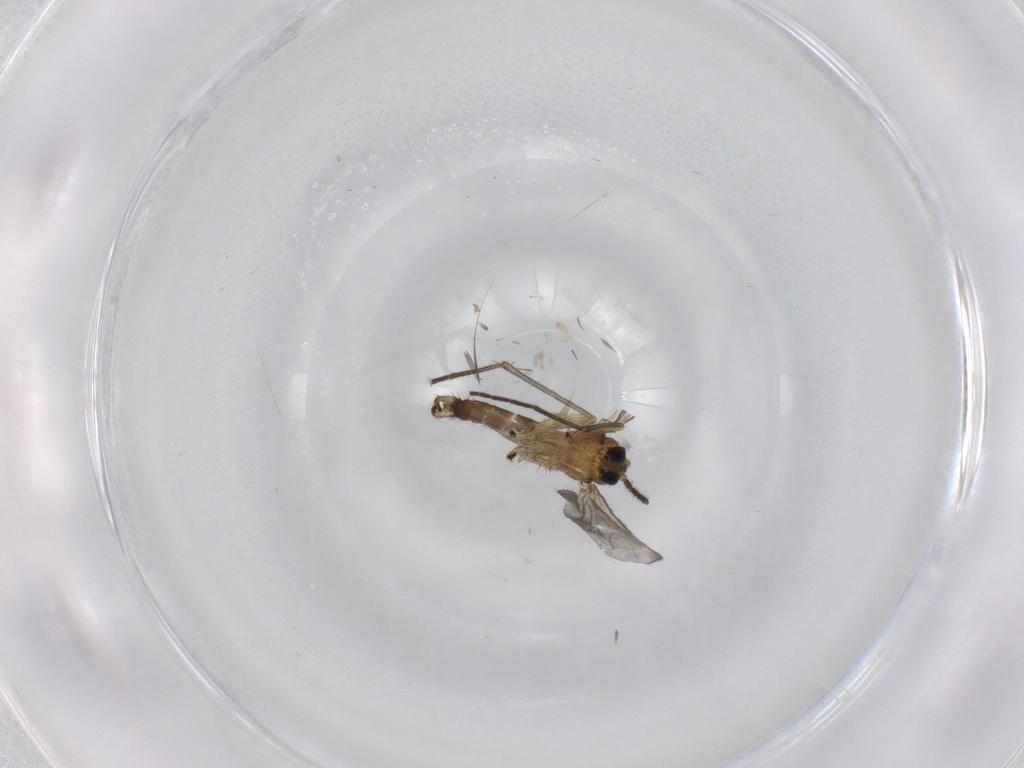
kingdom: Animalia
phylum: Arthropoda
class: Insecta
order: Diptera
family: Sciaridae
